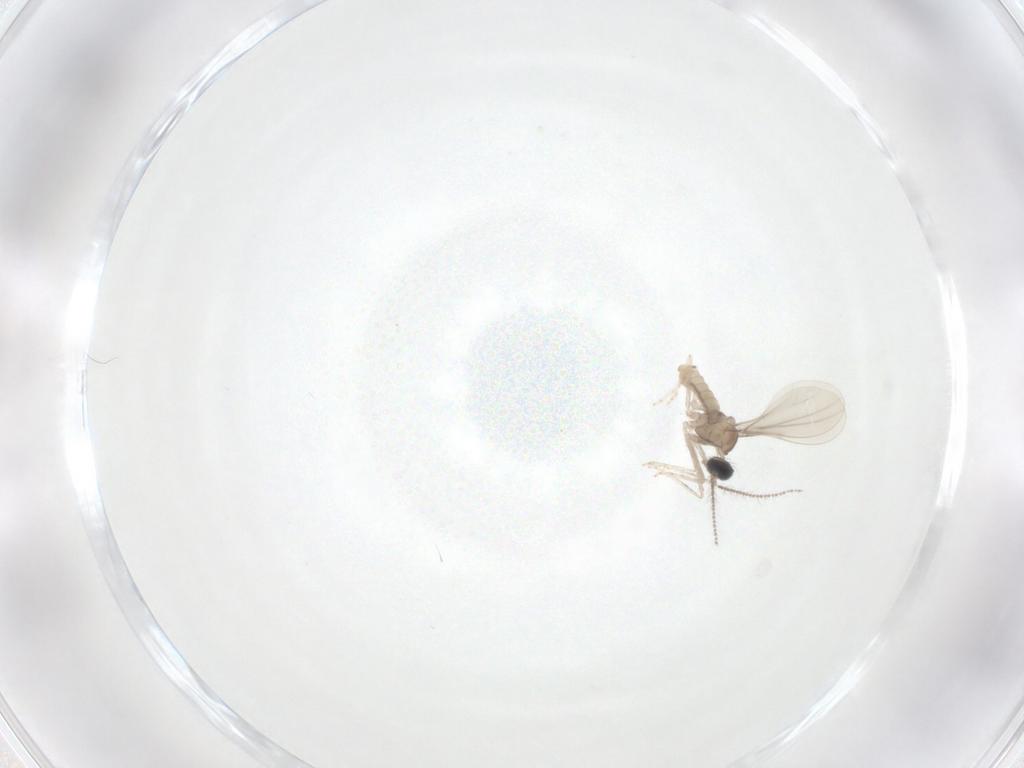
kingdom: Animalia
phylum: Arthropoda
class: Insecta
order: Diptera
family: Cecidomyiidae
